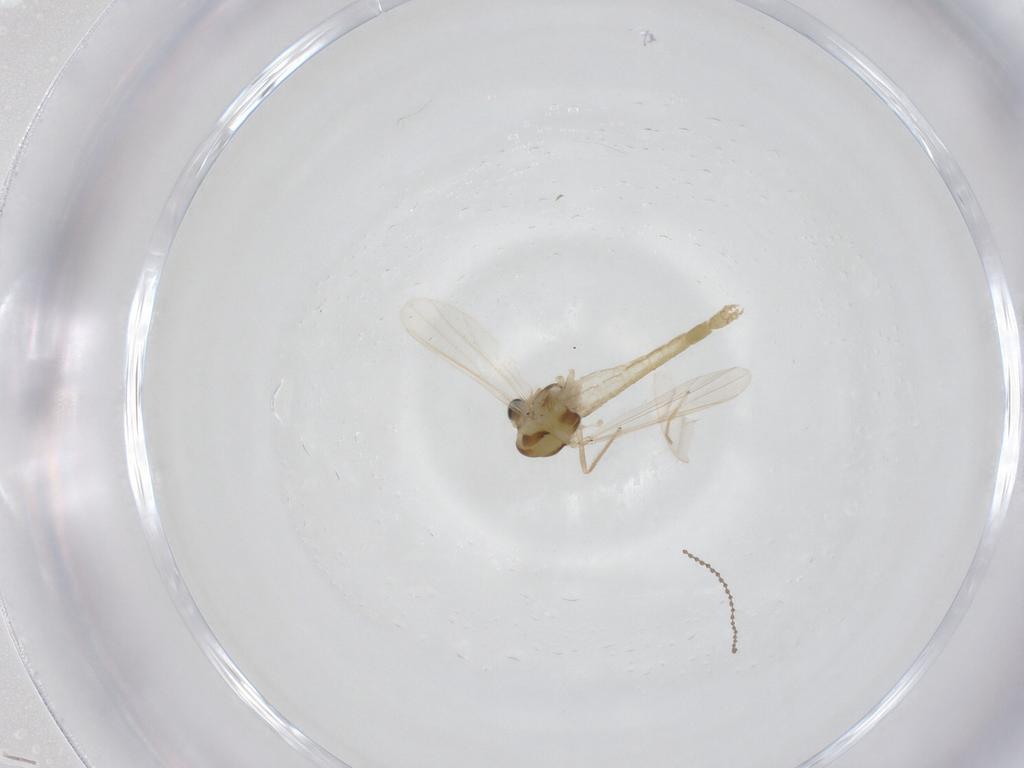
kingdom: Animalia
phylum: Arthropoda
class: Insecta
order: Diptera
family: Chironomidae
